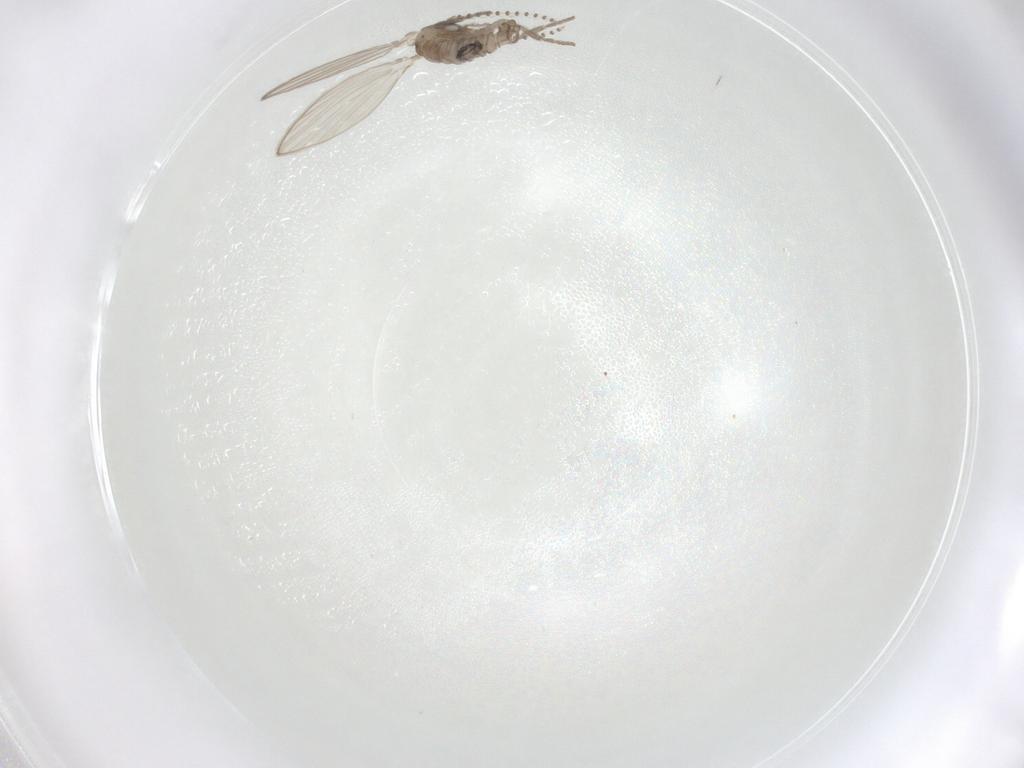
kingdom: Animalia
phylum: Arthropoda
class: Insecta
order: Diptera
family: Psychodidae
